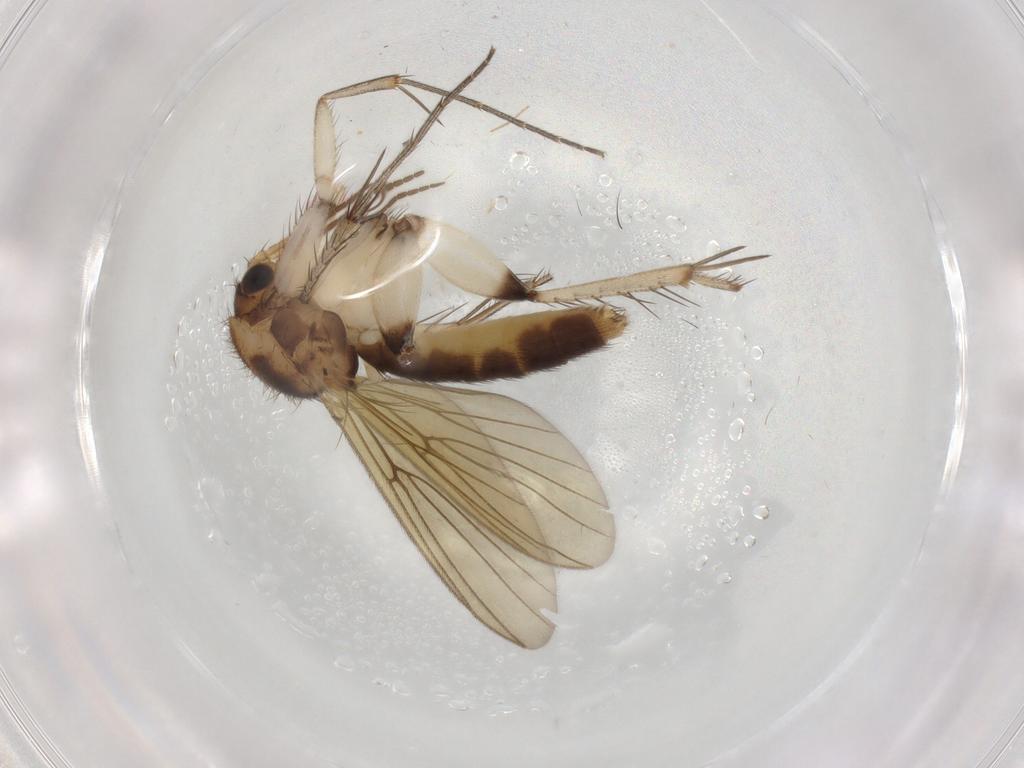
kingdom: Animalia
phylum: Arthropoda
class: Insecta
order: Diptera
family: Mycetophilidae
